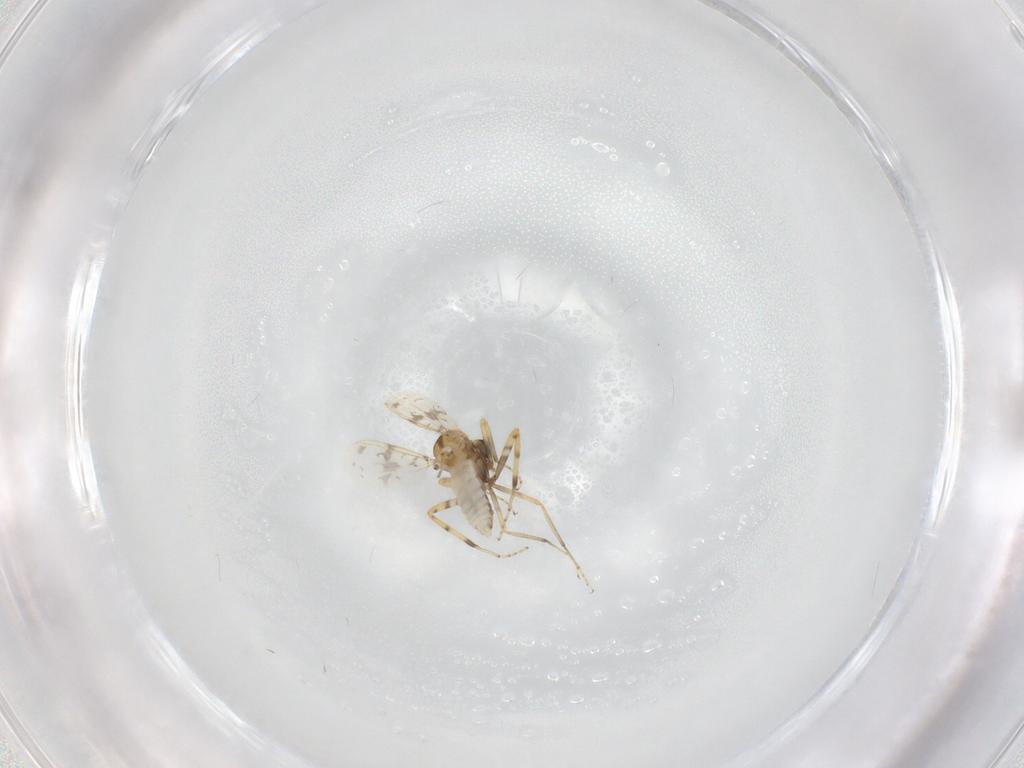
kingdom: Animalia
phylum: Arthropoda
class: Insecta
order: Diptera
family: Ceratopogonidae
